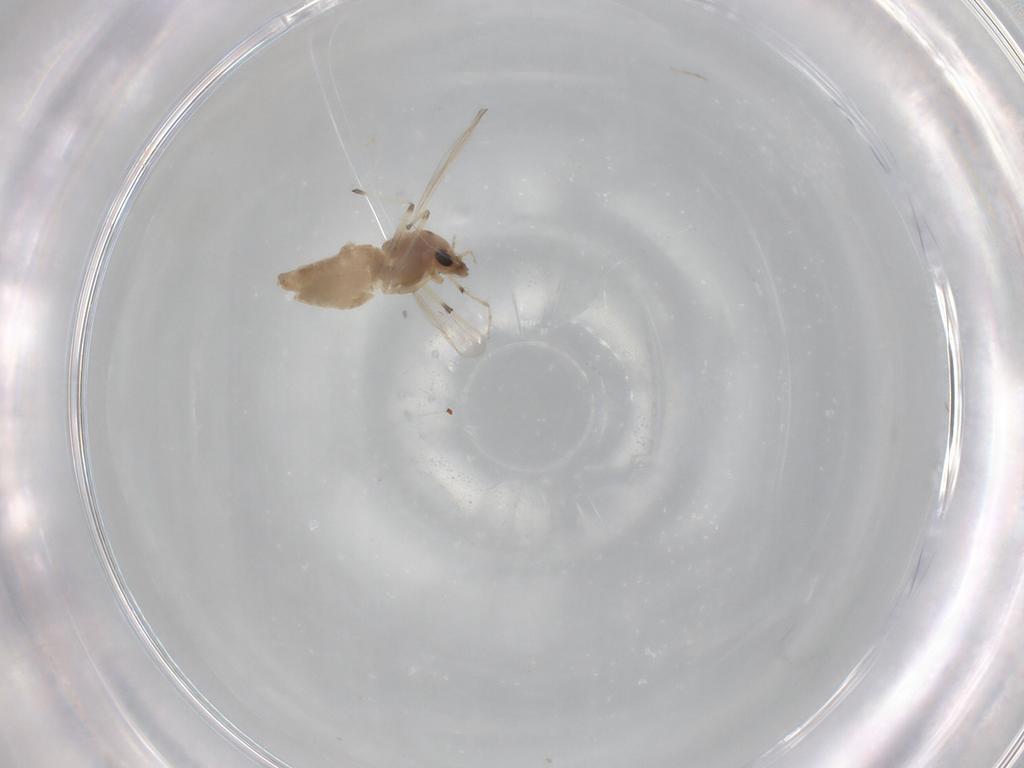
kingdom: Animalia
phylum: Arthropoda
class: Insecta
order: Diptera
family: Chironomidae
